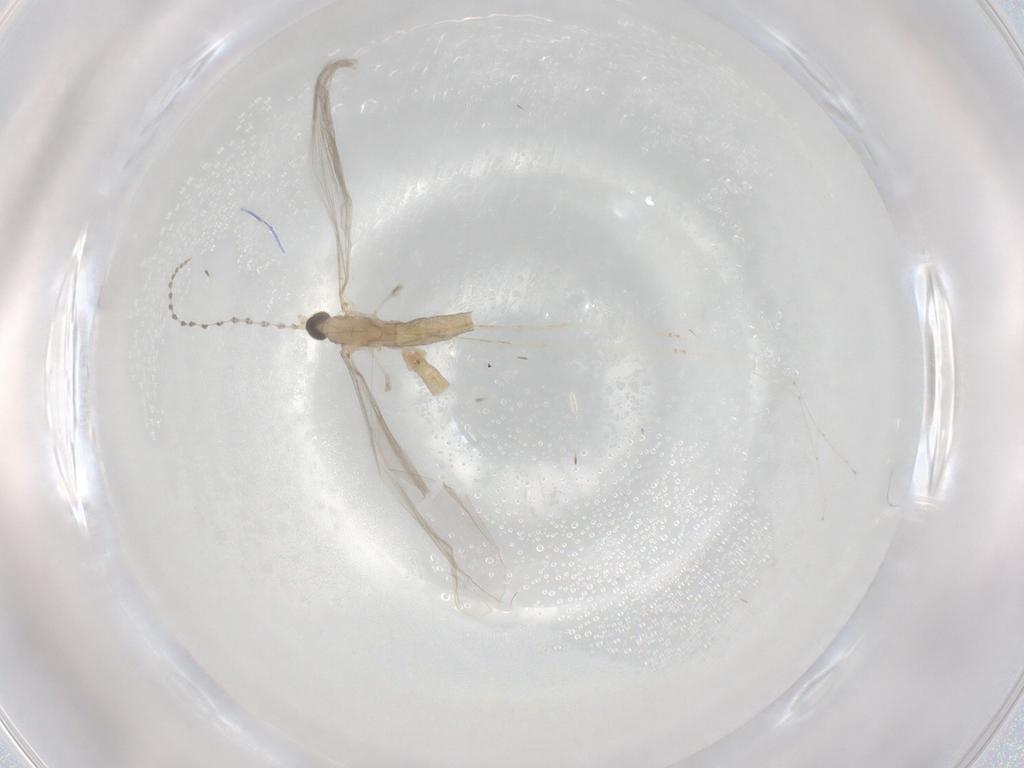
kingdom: Animalia
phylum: Arthropoda
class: Insecta
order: Diptera
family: Cecidomyiidae
